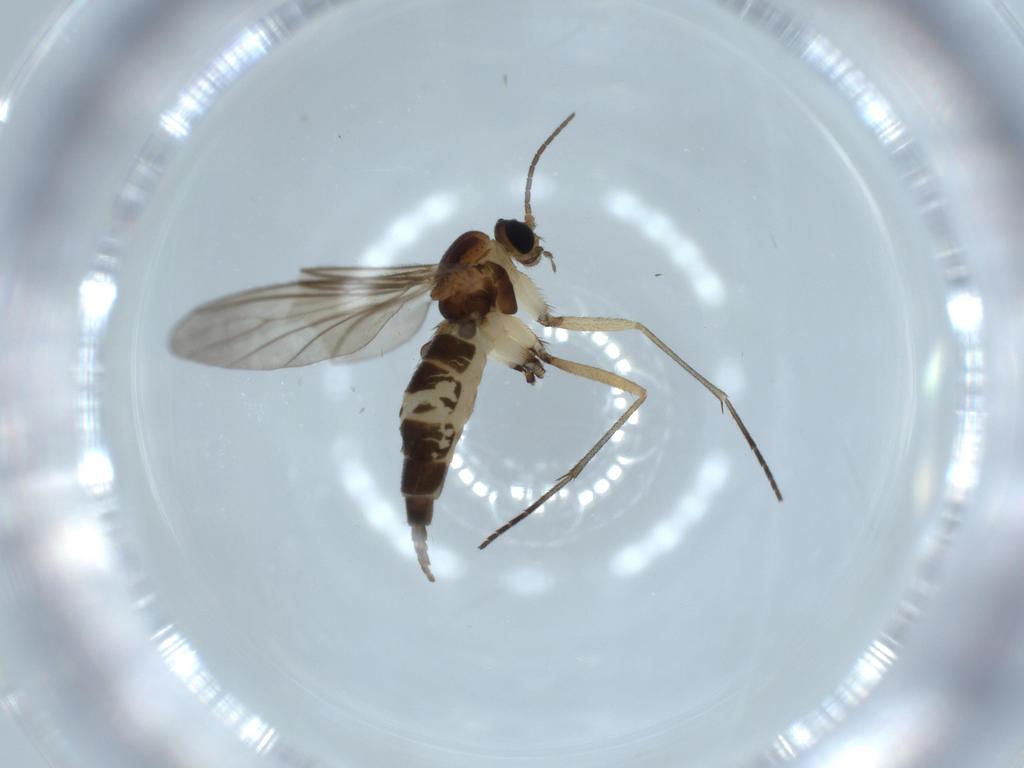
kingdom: Animalia
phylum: Arthropoda
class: Insecta
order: Diptera
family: Sciaridae
